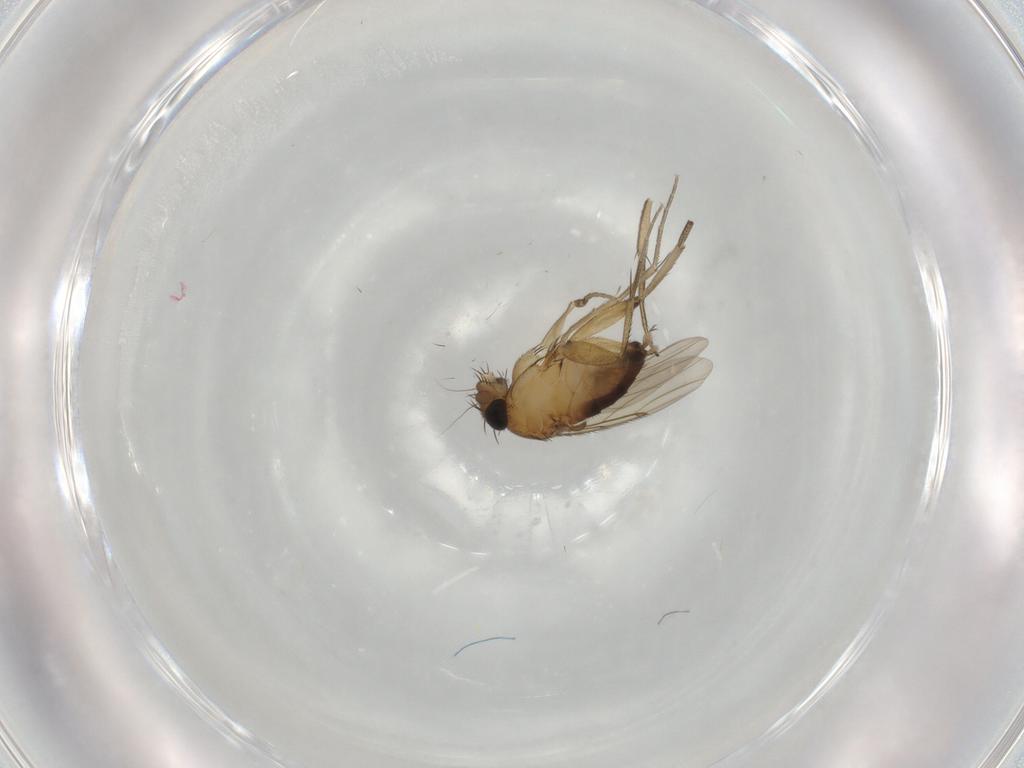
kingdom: Animalia
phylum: Arthropoda
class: Insecta
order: Diptera
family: Phoridae
